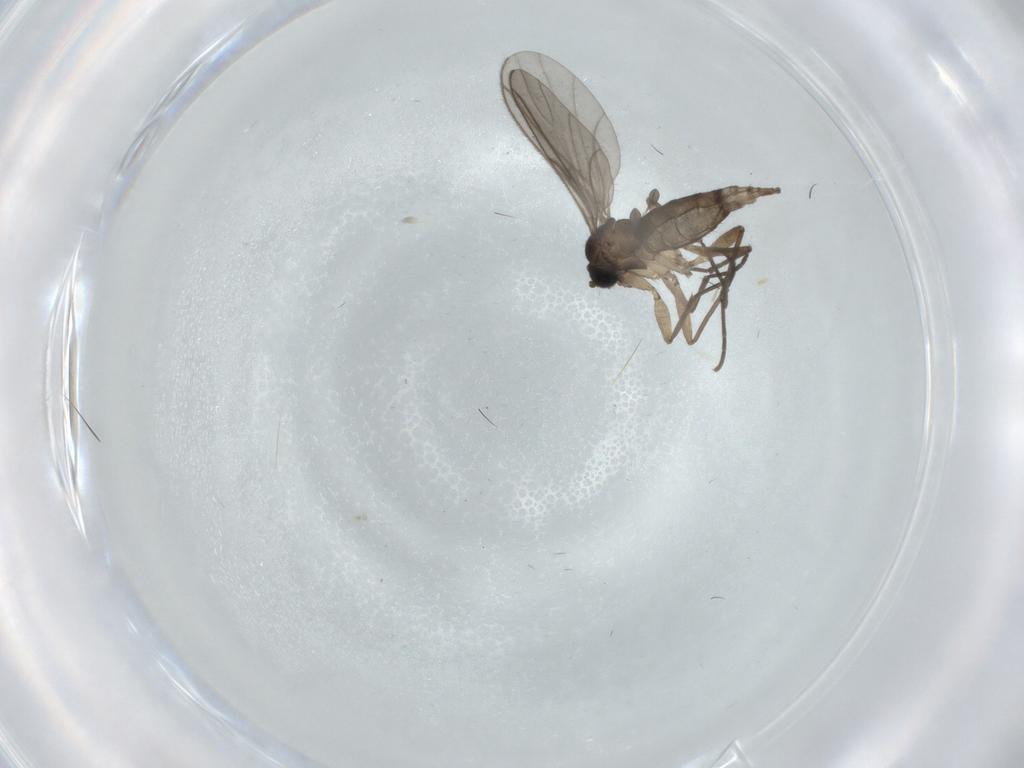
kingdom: Animalia
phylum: Arthropoda
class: Insecta
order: Diptera
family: Sciaridae
